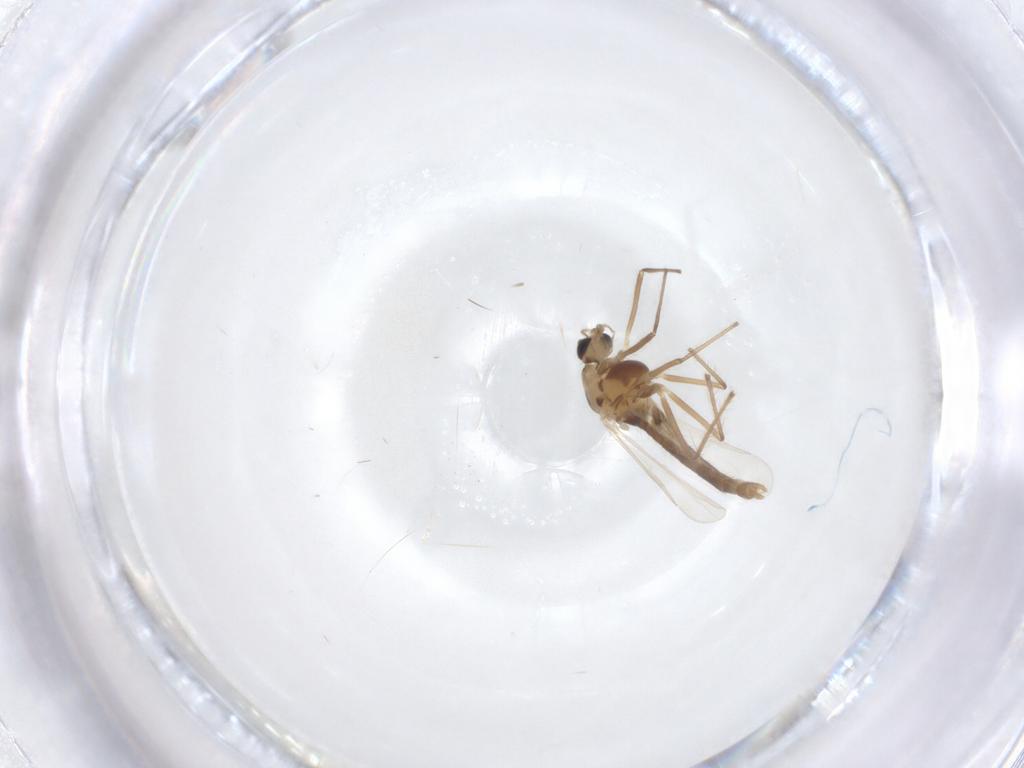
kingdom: Animalia
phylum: Arthropoda
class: Insecta
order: Diptera
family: Chironomidae
